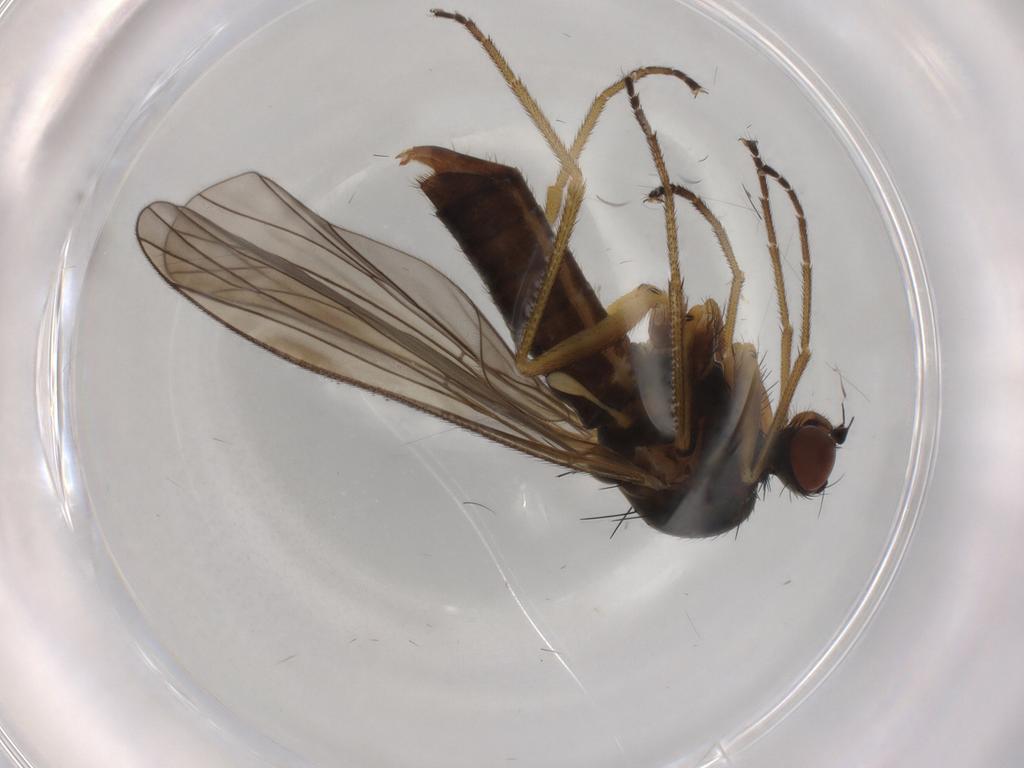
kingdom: Animalia
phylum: Arthropoda
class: Insecta
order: Diptera
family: Brachystomatidae
